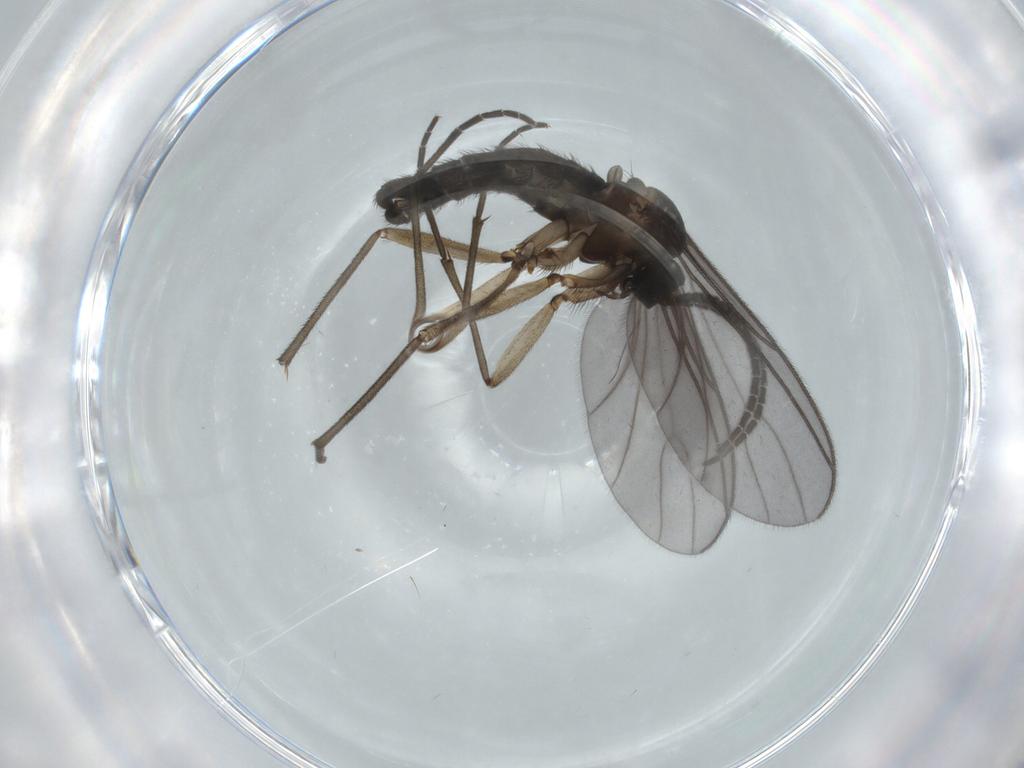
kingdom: Animalia
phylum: Arthropoda
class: Insecta
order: Diptera
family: Sciaridae
